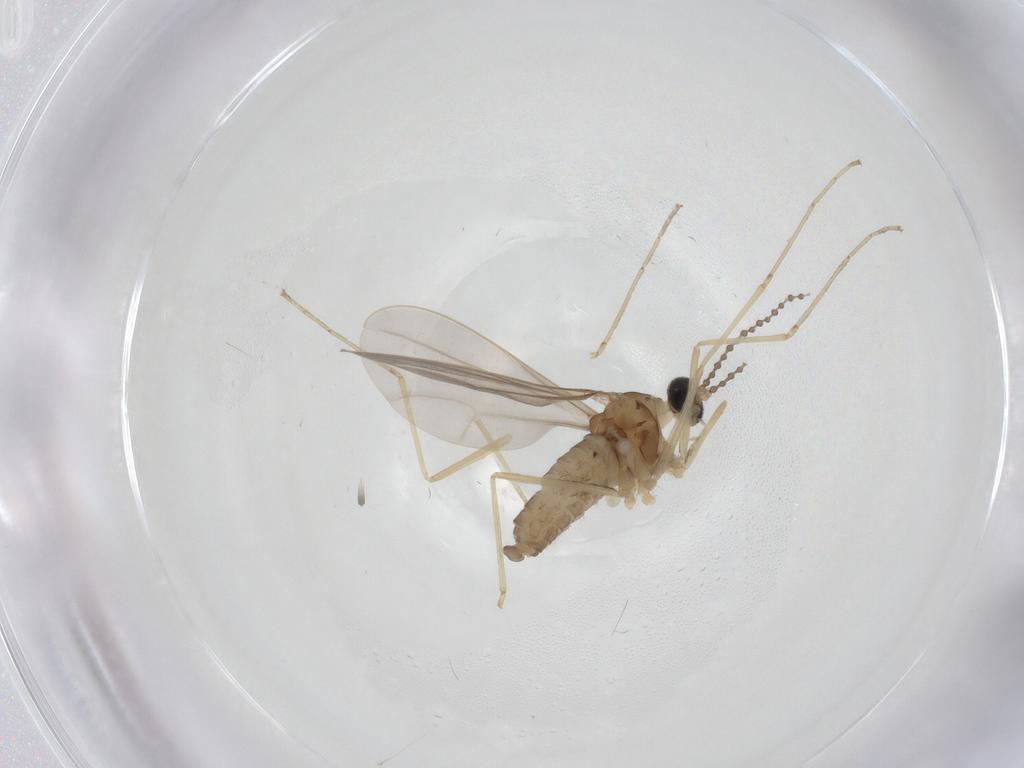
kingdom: Animalia
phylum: Arthropoda
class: Insecta
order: Diptera
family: Cecidomyiidae
